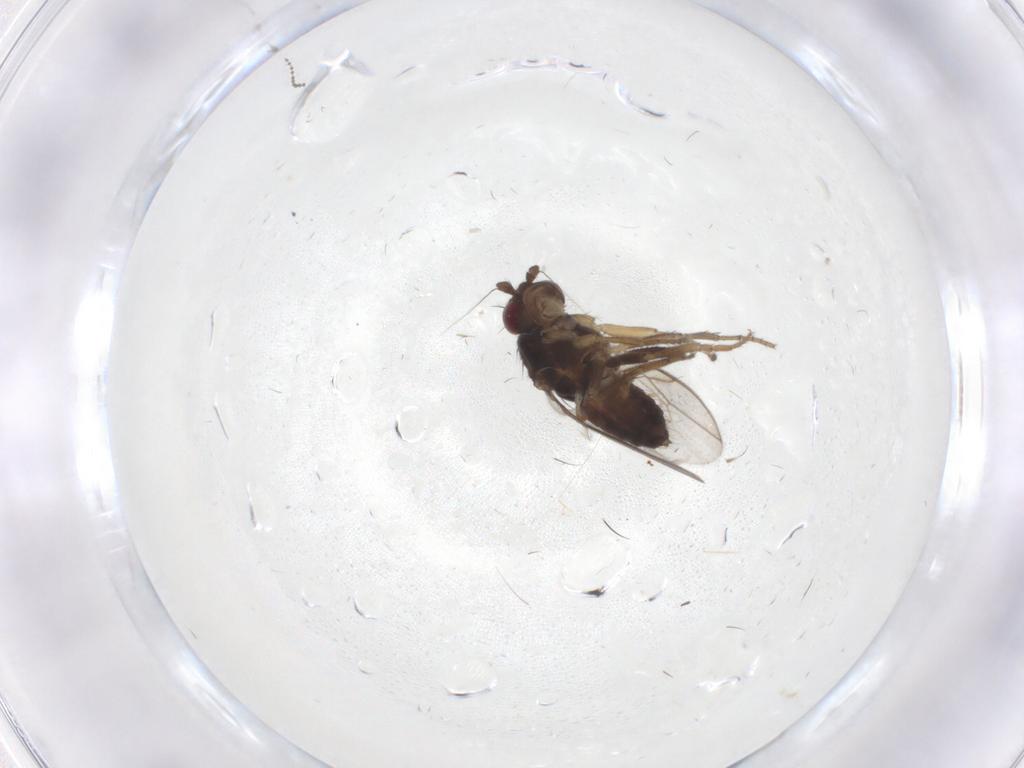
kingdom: Animalia
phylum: Arthropoda
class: Insecta
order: Diptera
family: Sphaeroceridae
